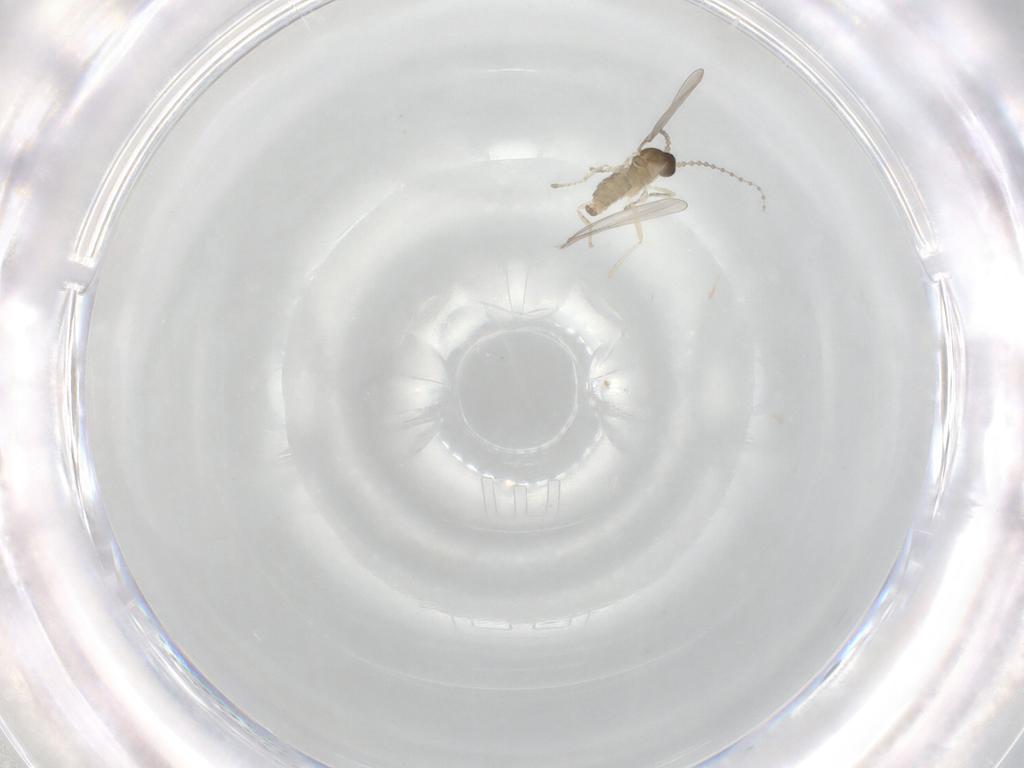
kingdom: Animalia
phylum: Arthropoda
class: Insecta
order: Diptera
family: Cecidomyiidae
